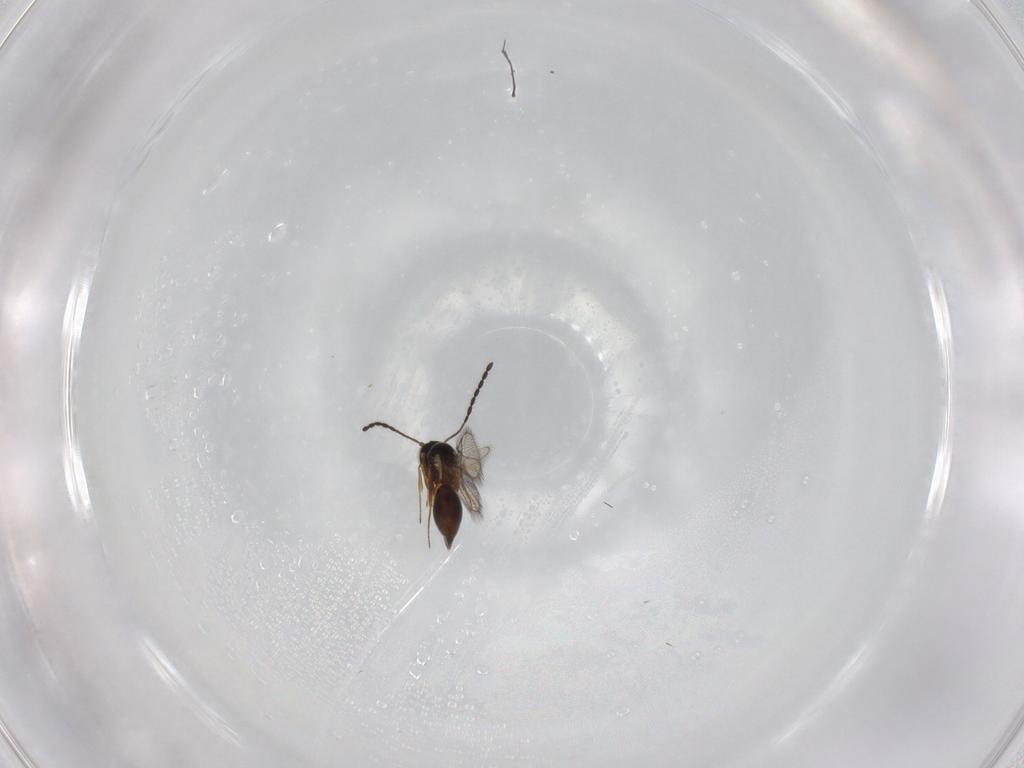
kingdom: Animalia
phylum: Arthropoda
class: Insecta
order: Hymenoptera
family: Figitidae
